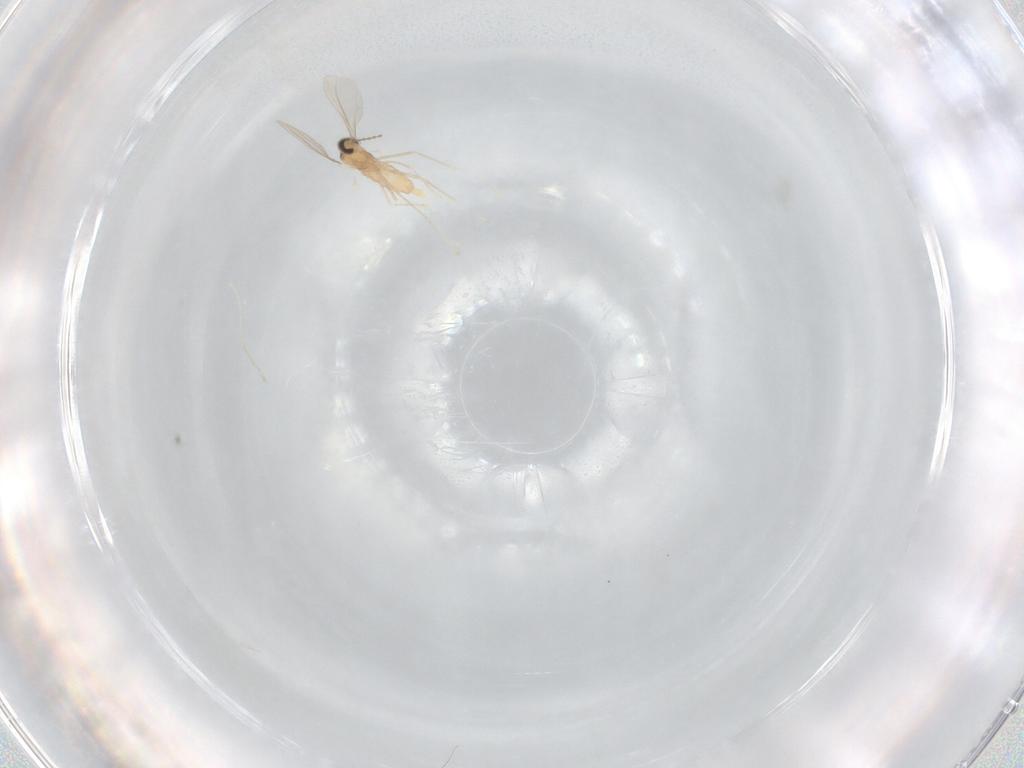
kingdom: Animalia
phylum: Arthropoda
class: Insecta
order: Diptera
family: Cecidomyiidae
